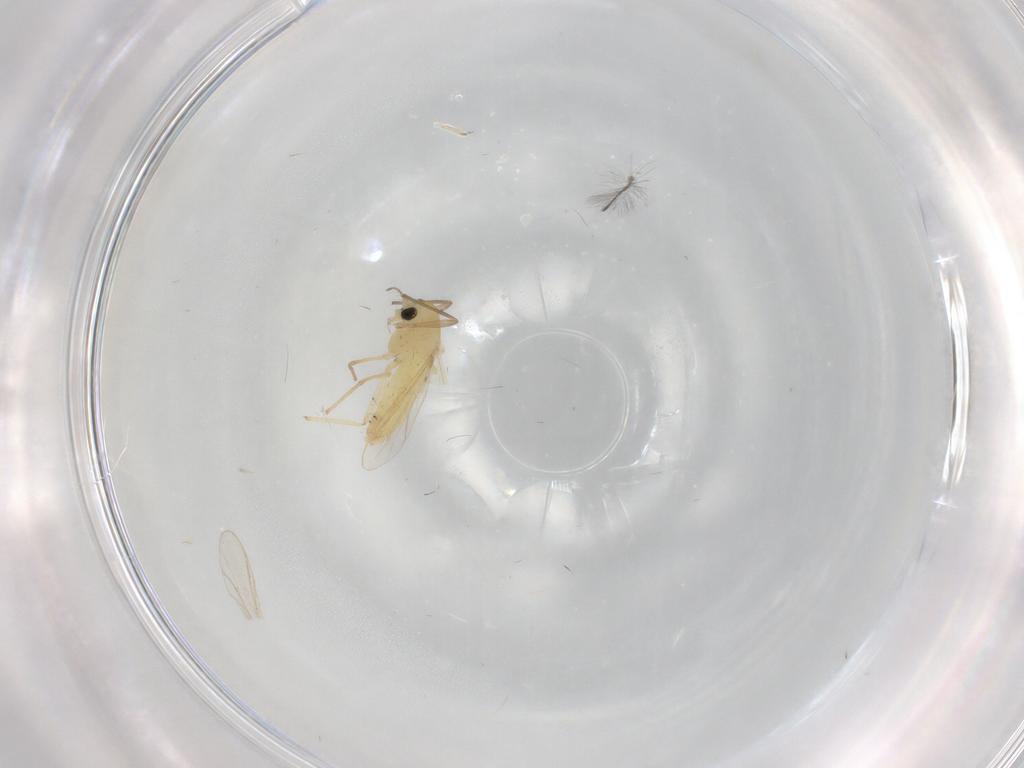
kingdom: Animalia
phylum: Arthropoda
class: Insecta
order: Diptera
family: Chironomidae
